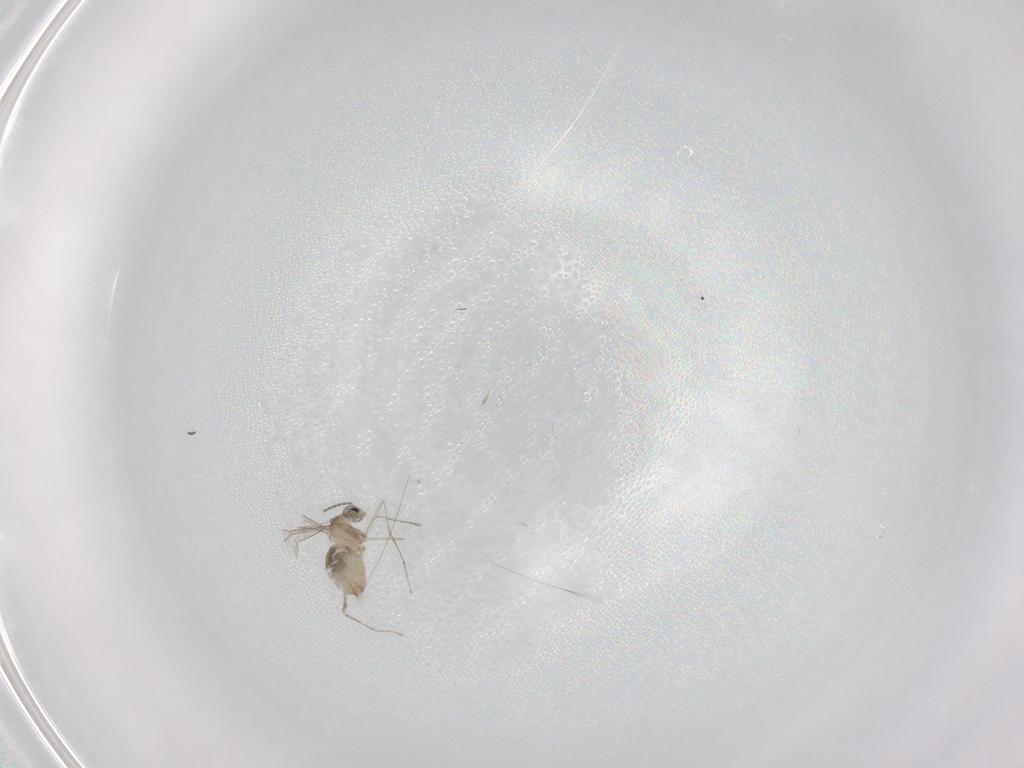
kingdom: Animalia
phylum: Arthropoda
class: Insecta
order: Diptera
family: Cecidomyiidae
